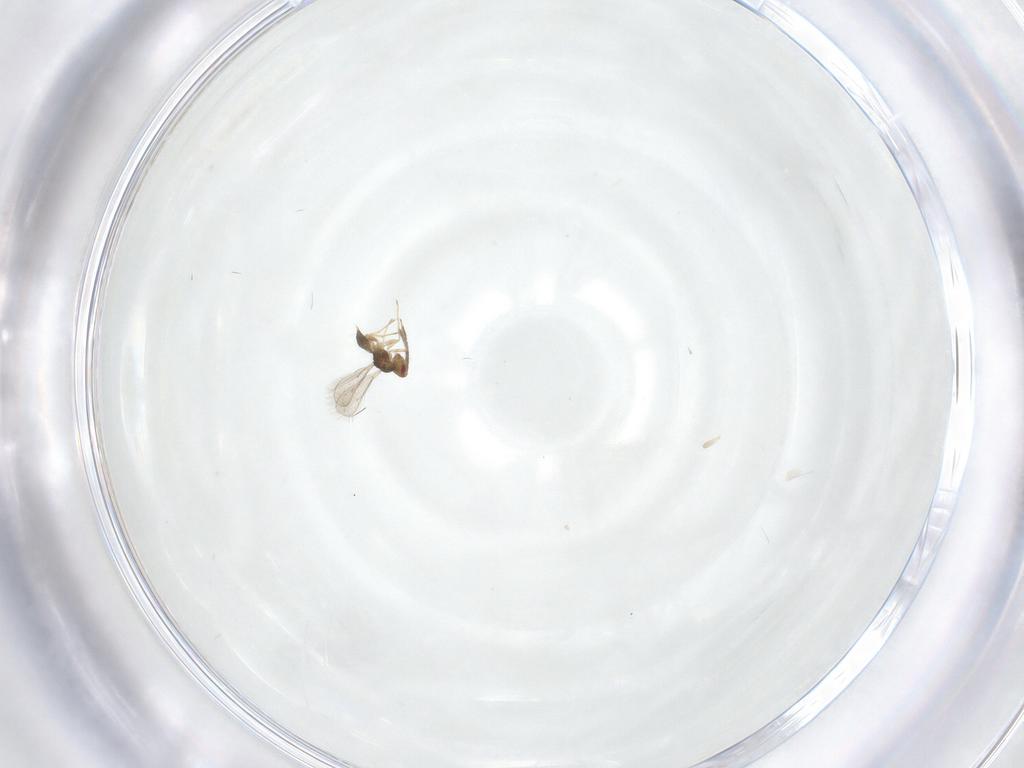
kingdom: Animalia
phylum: Arthropoda
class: Insecta
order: Hymenoptera
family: Eulophidae
